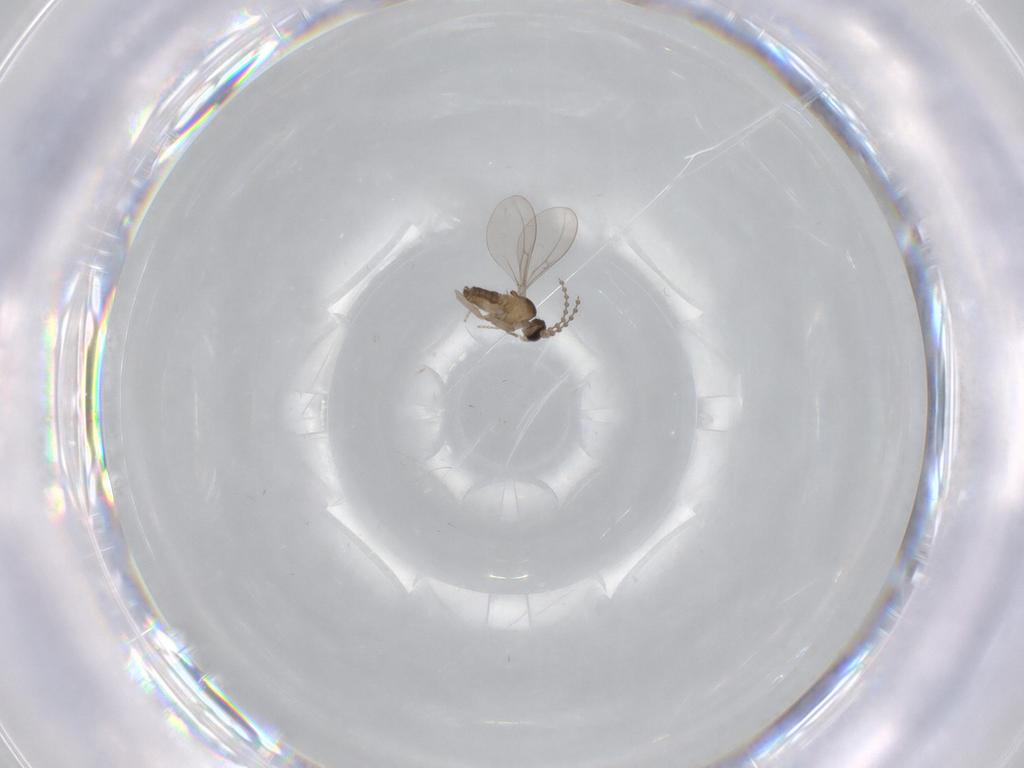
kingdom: Animalia
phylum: Arthropoda
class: Insecta
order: Diptera
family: Cecidomyiidae
